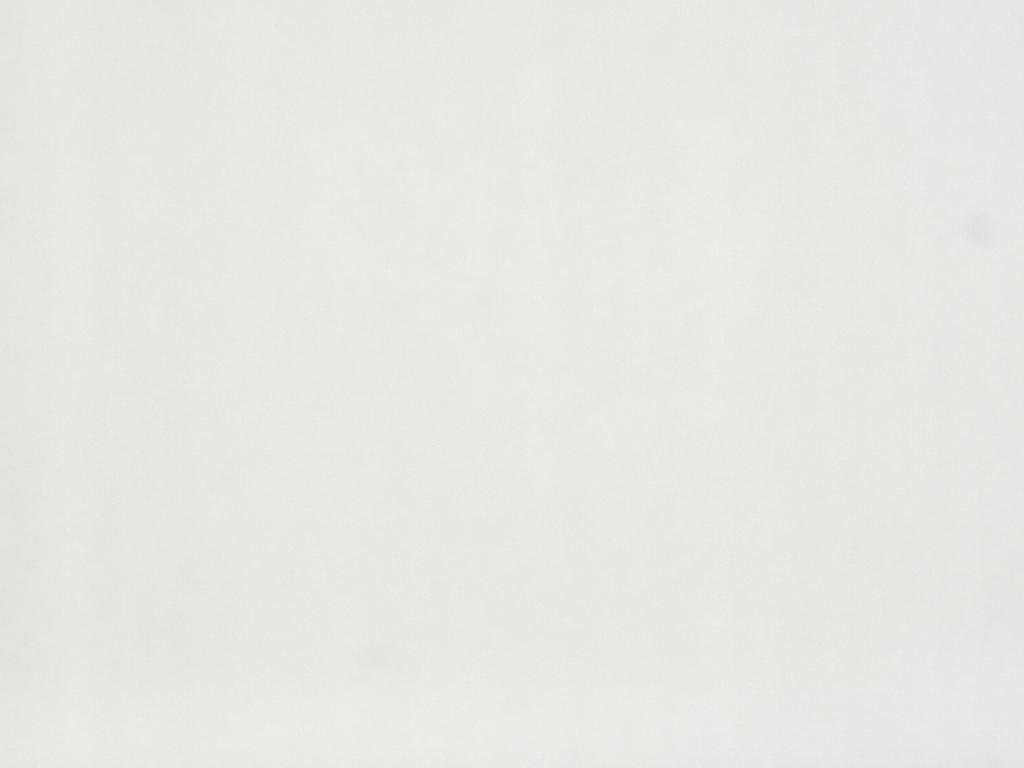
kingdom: Animalia
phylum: Arthropoda
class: Insecta
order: Diptera
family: Phoridae
